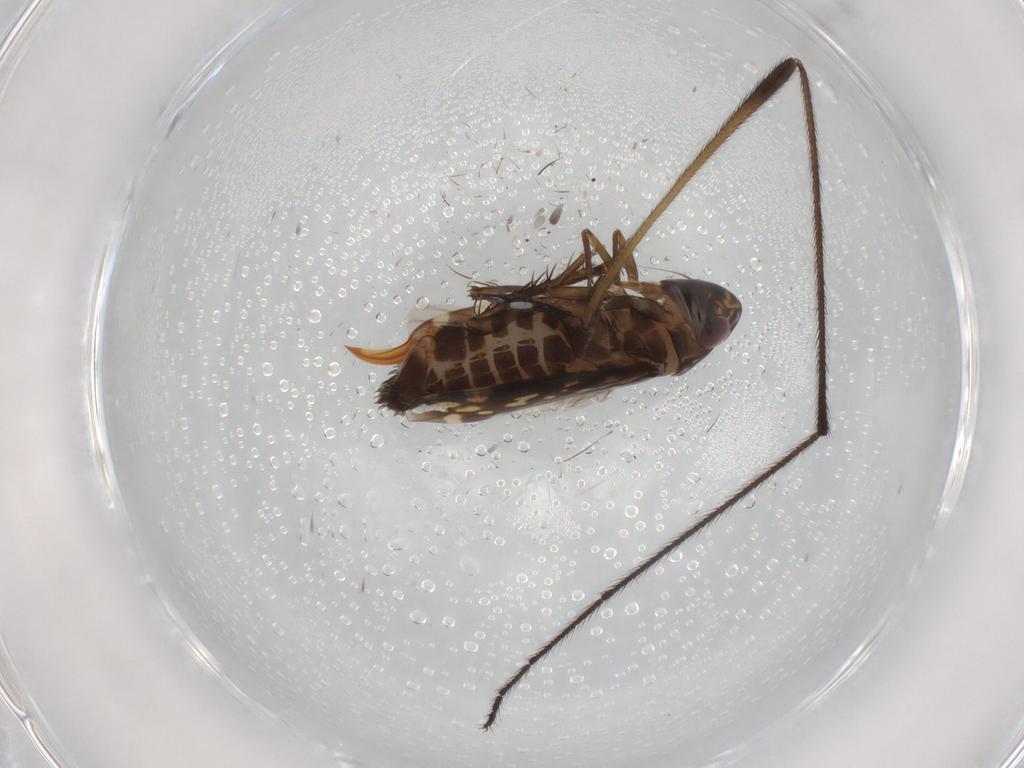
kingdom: Animalia
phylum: Arthropoda
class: Insecta
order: Hemiptera
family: Cicadellidae
